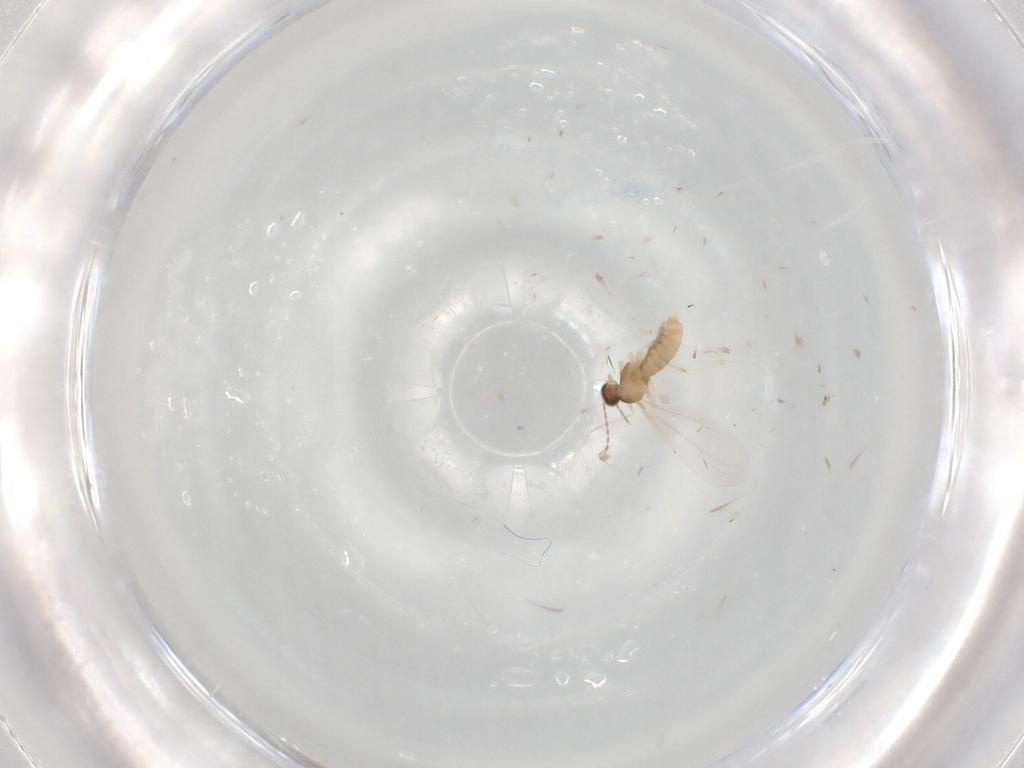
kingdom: Animalia
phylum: Arthropoda
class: Insecta
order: Diptera
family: Cecidomyiidae
